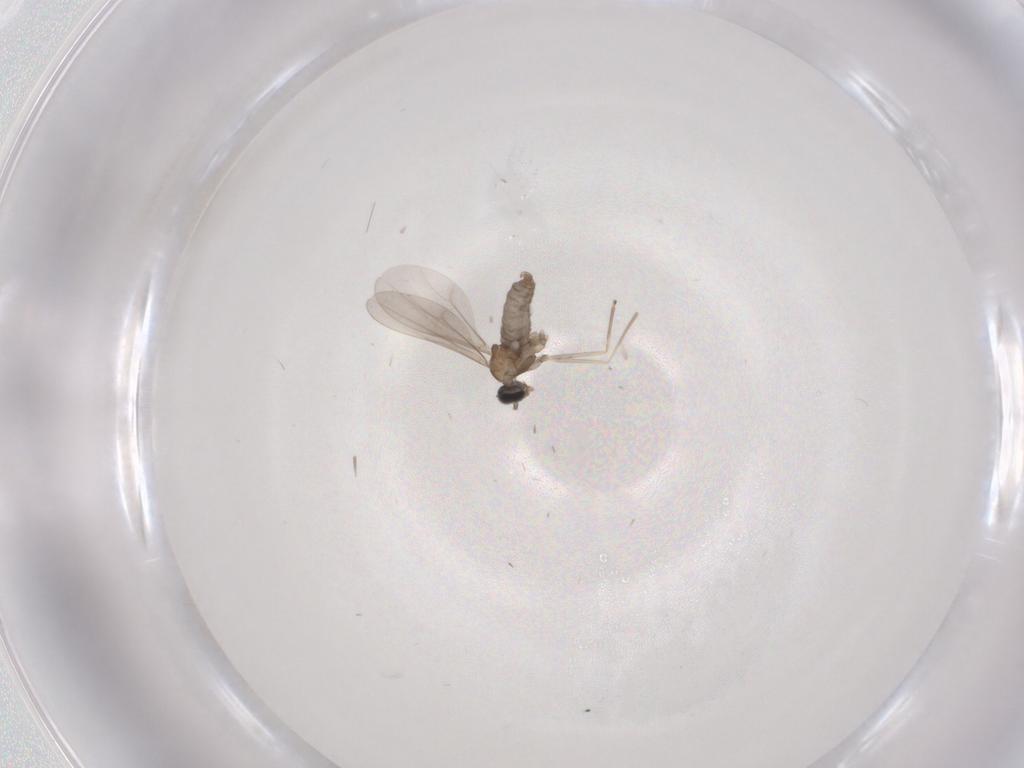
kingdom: Animalia
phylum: Arthropoda
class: Insecta
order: Diptera
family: Cecidomyiidae
